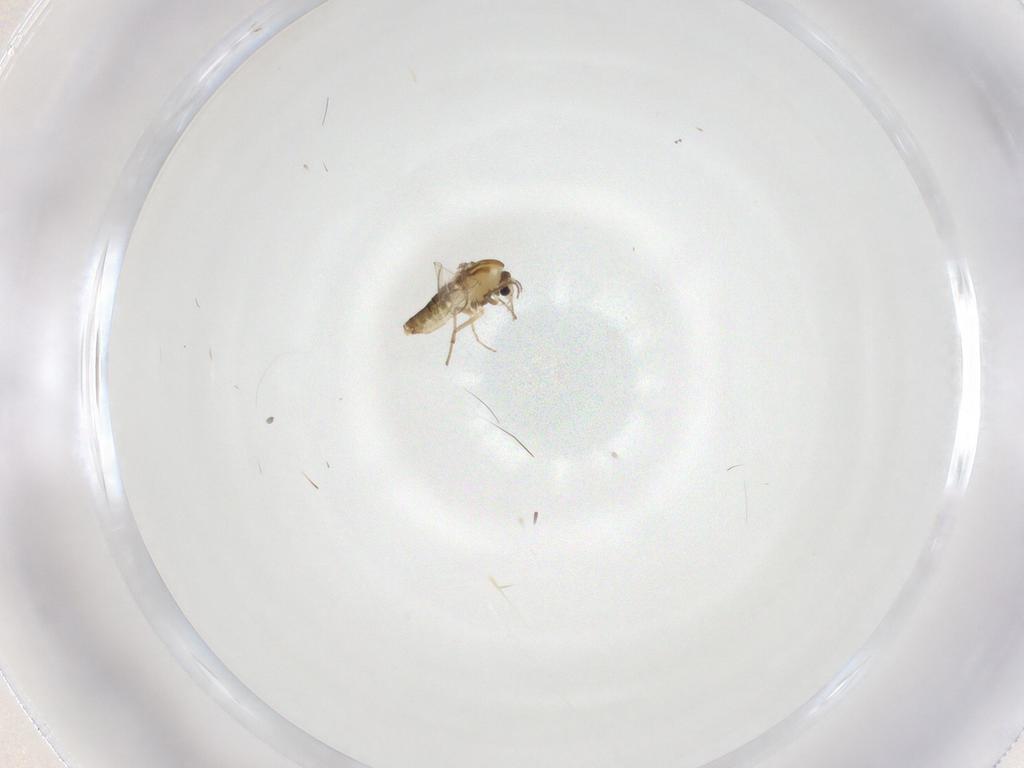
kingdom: Animalia
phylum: Arthropoda
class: Insecta
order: Diptera
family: Chironomidae
